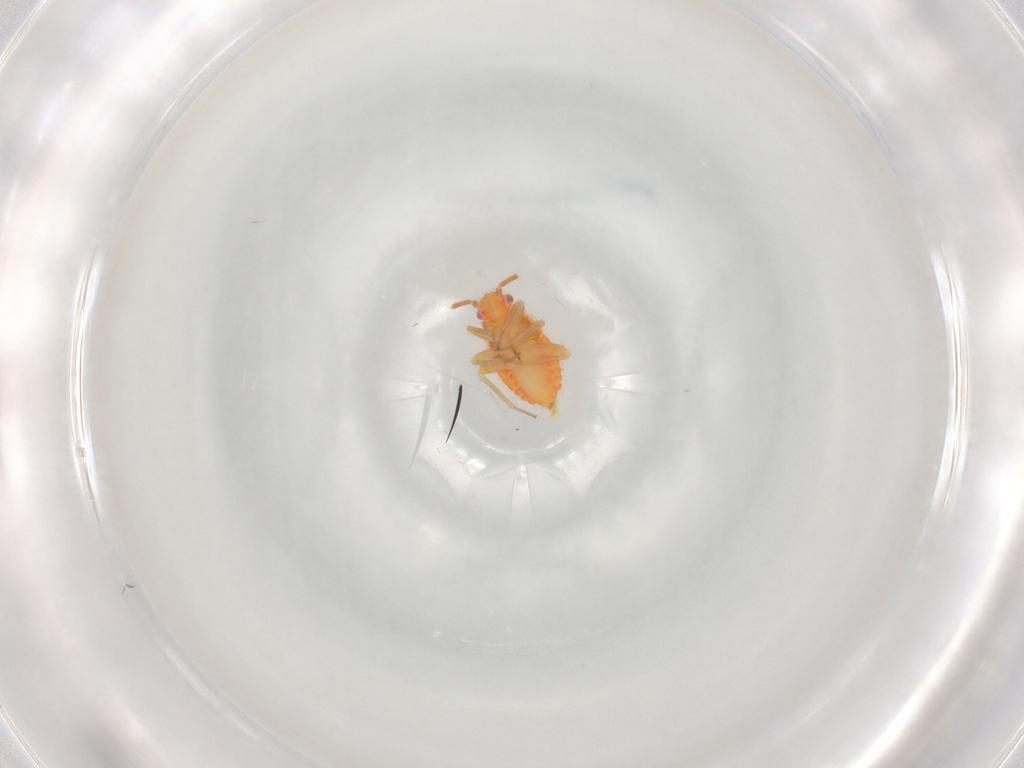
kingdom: Animalia
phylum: Arthropoda
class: Insecta
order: Hemiptera
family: Miridae
